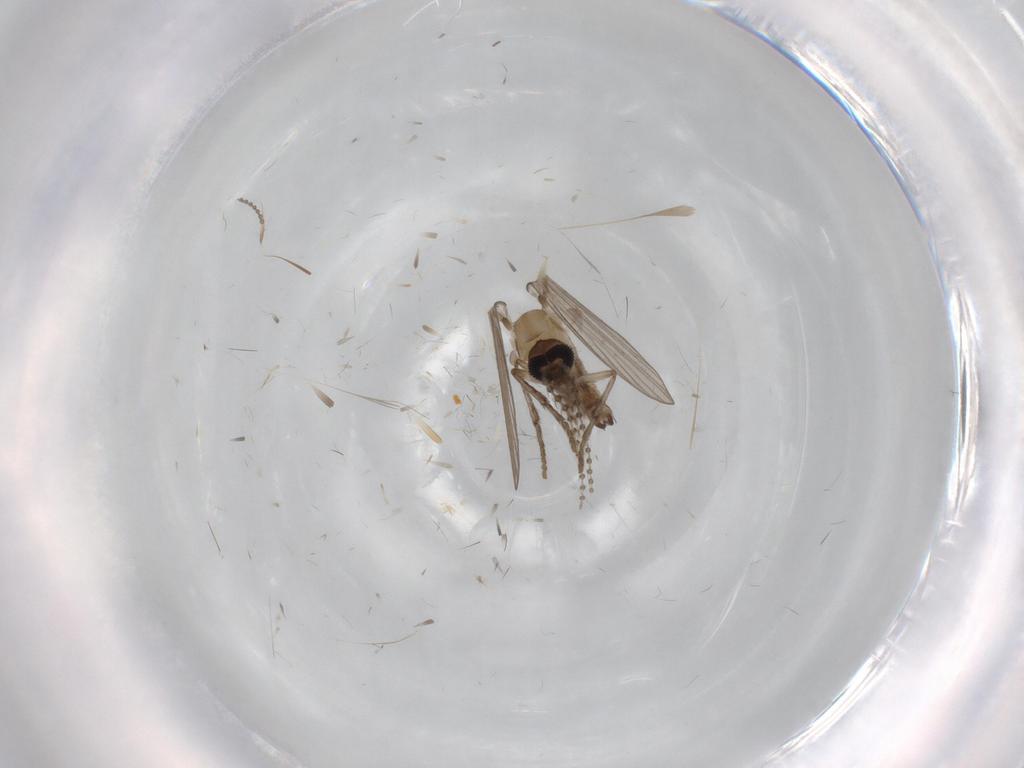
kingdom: Animalia
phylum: Arthropoda
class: Insecta
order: Diptera
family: Psychodidae
